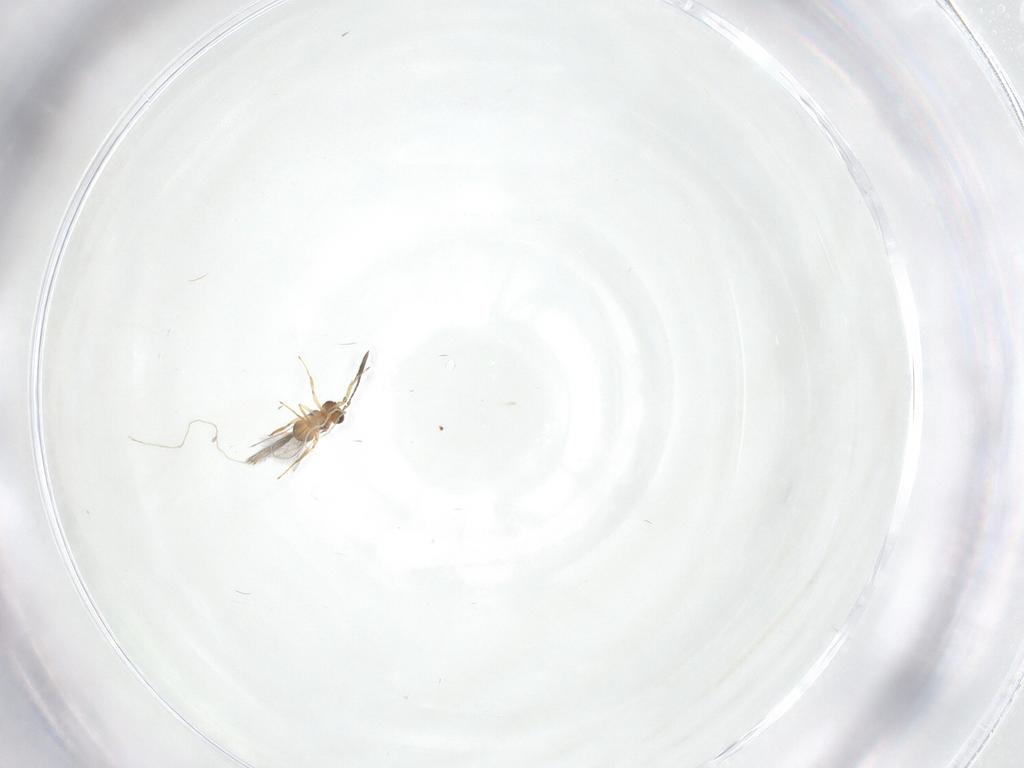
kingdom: Animalia
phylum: Arthropoda
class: Insecta
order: Hymenoptera
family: Mymaridae
